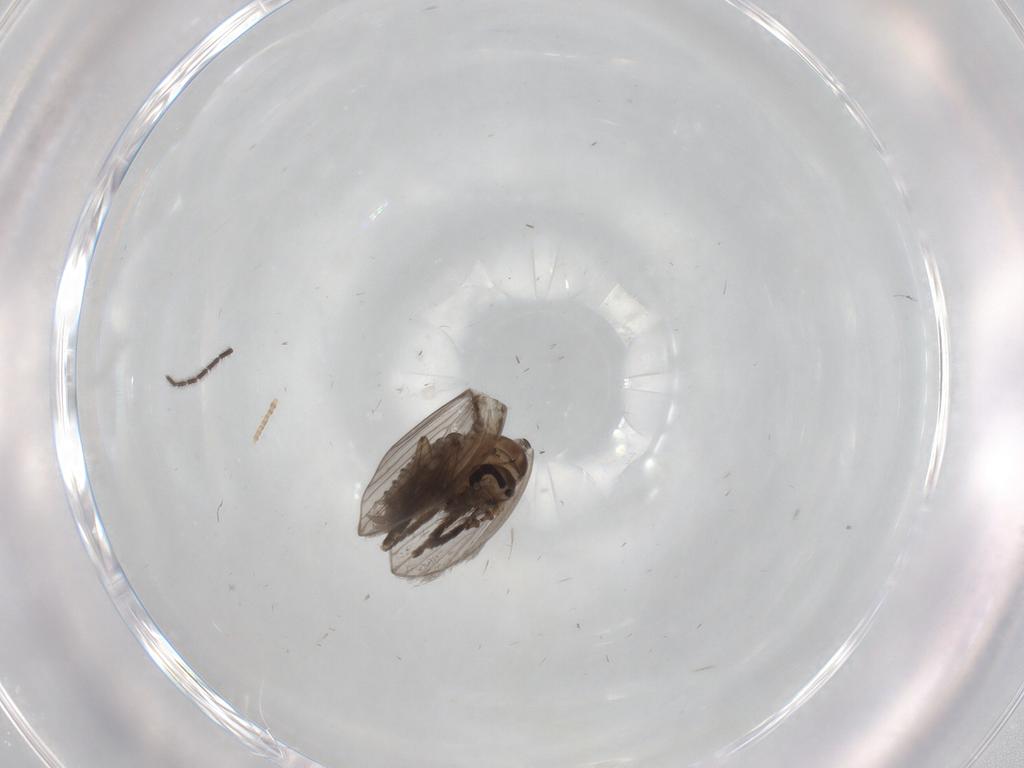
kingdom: Animalia
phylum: Arthropoda
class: Insecta
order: Diptera
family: Psychodidae
